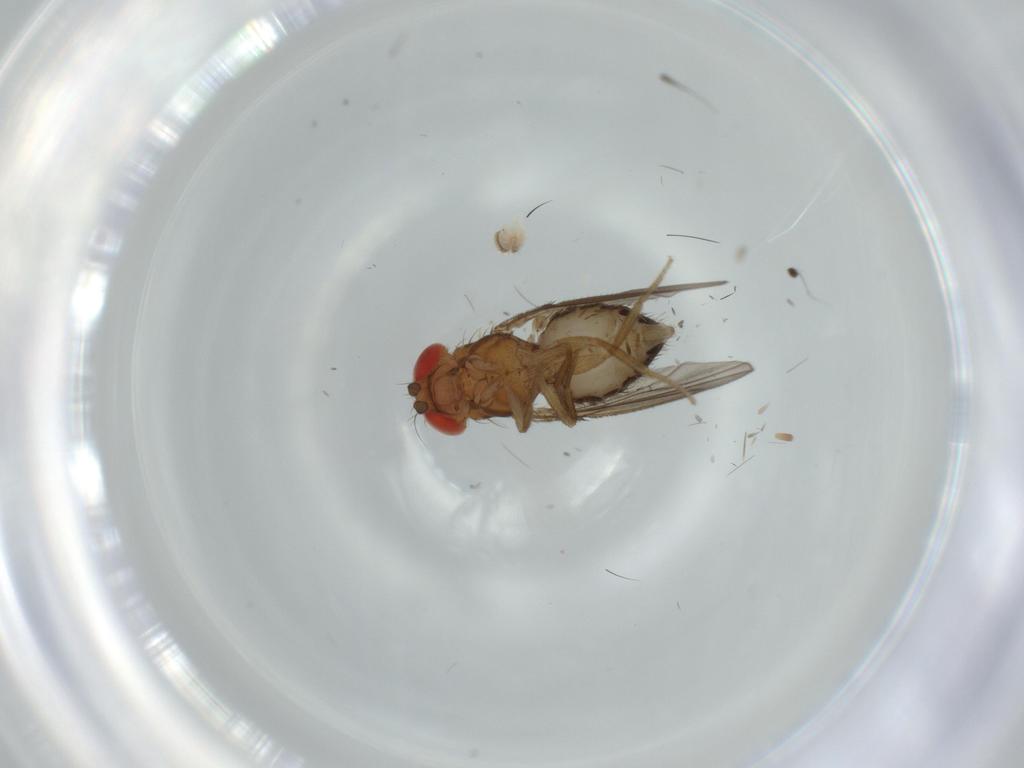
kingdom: Animalia
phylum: Arthropoda
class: Insecta
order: Diptera
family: Drosophilidae
